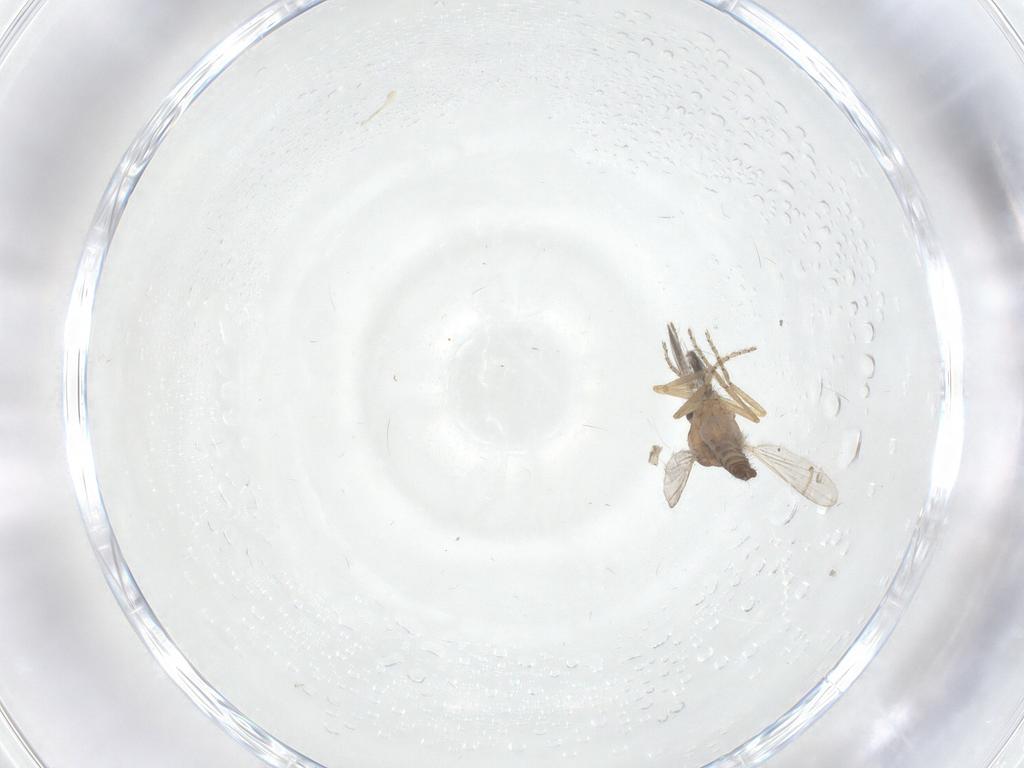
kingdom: Animalia
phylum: Arthropoda
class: Insecta
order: Diptera
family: Ceratopogonidae
